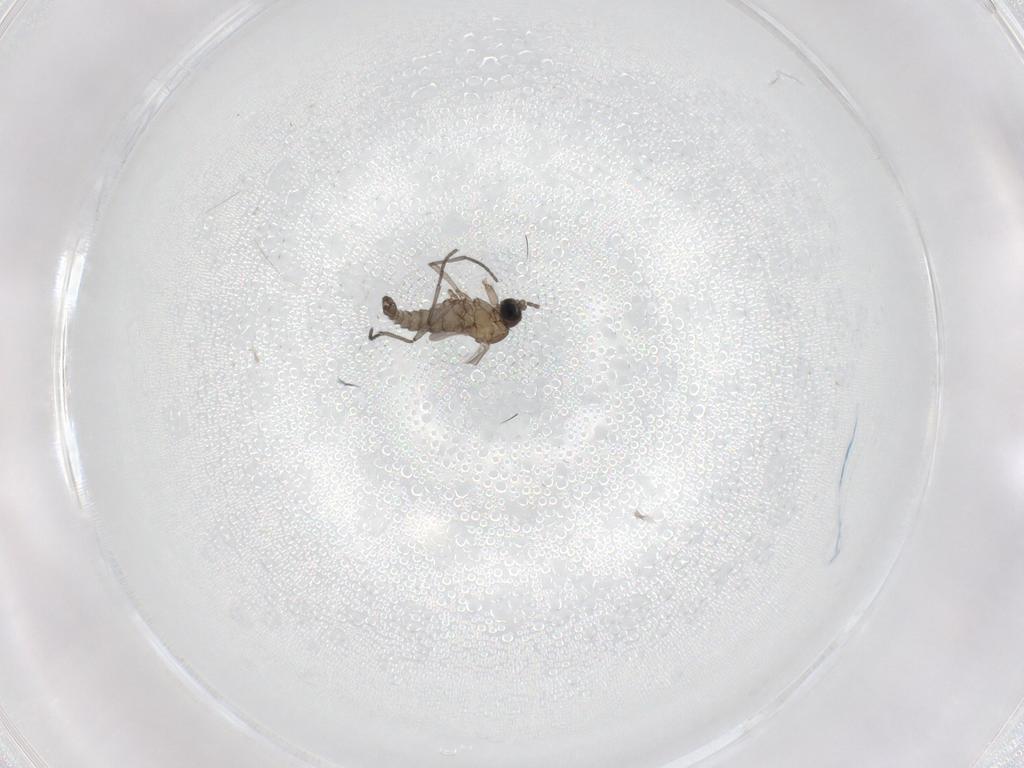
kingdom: Animalia
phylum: Arthropoda
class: Insecta
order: Diptera
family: Sciaridae
